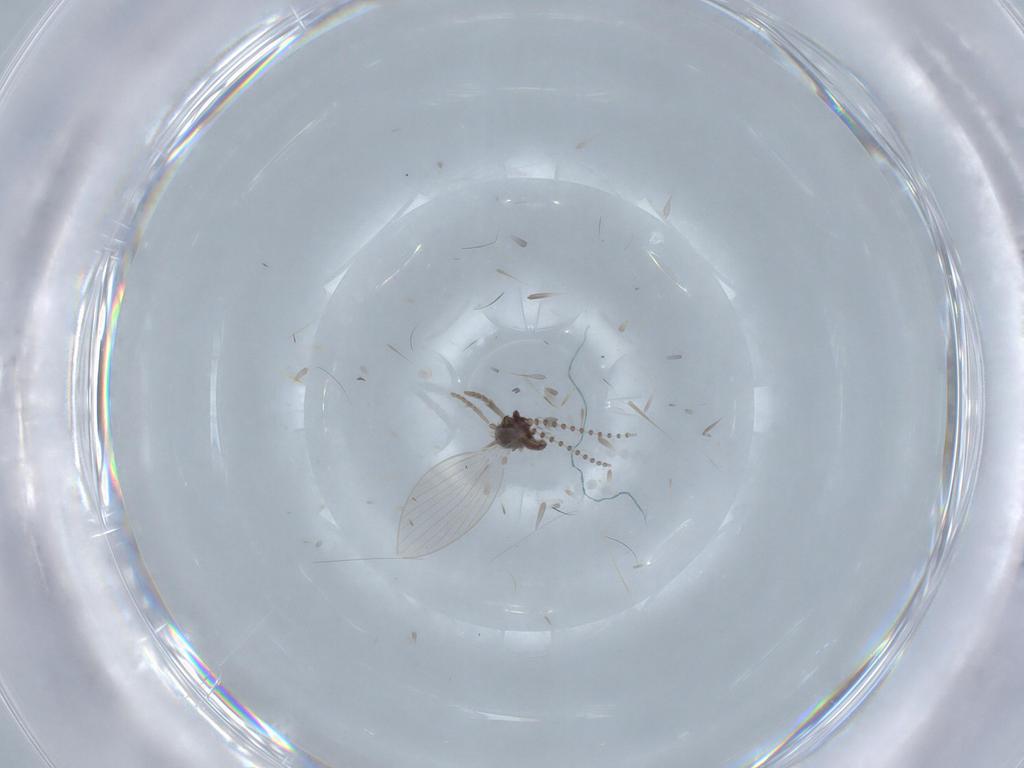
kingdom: Animalia
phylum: Arthropoda
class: Insecta
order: Diptera
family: Psychodidae
